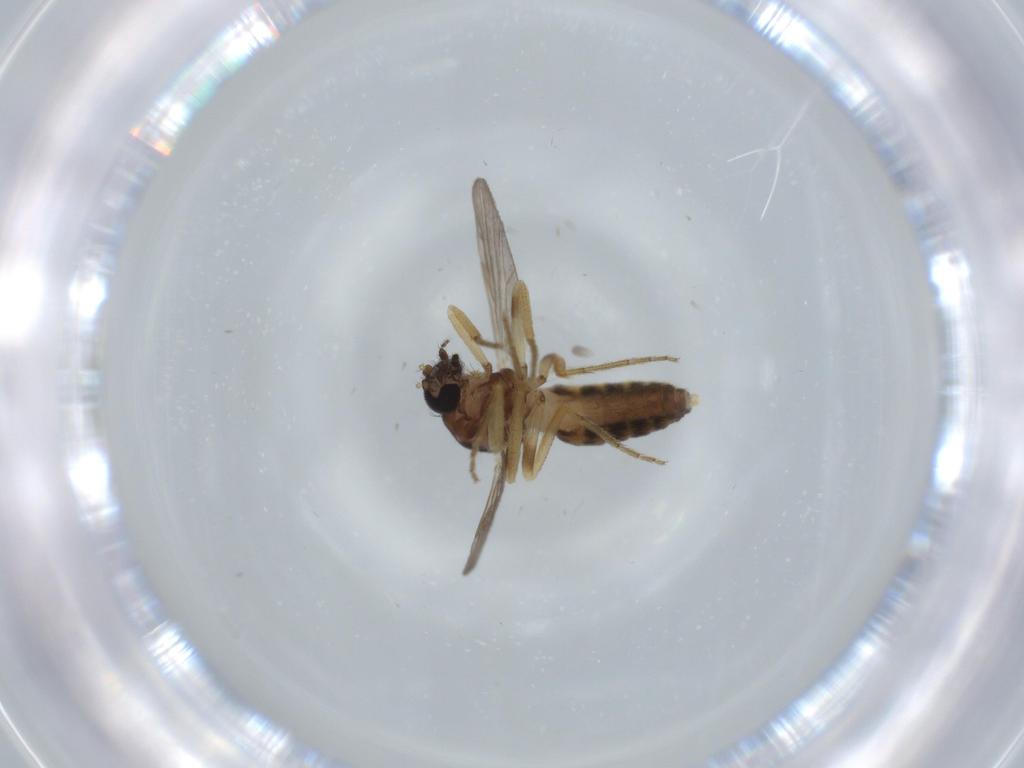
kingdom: Animalia
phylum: Arthropoda
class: Insecta
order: Diptera
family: Ceratopogonidae
